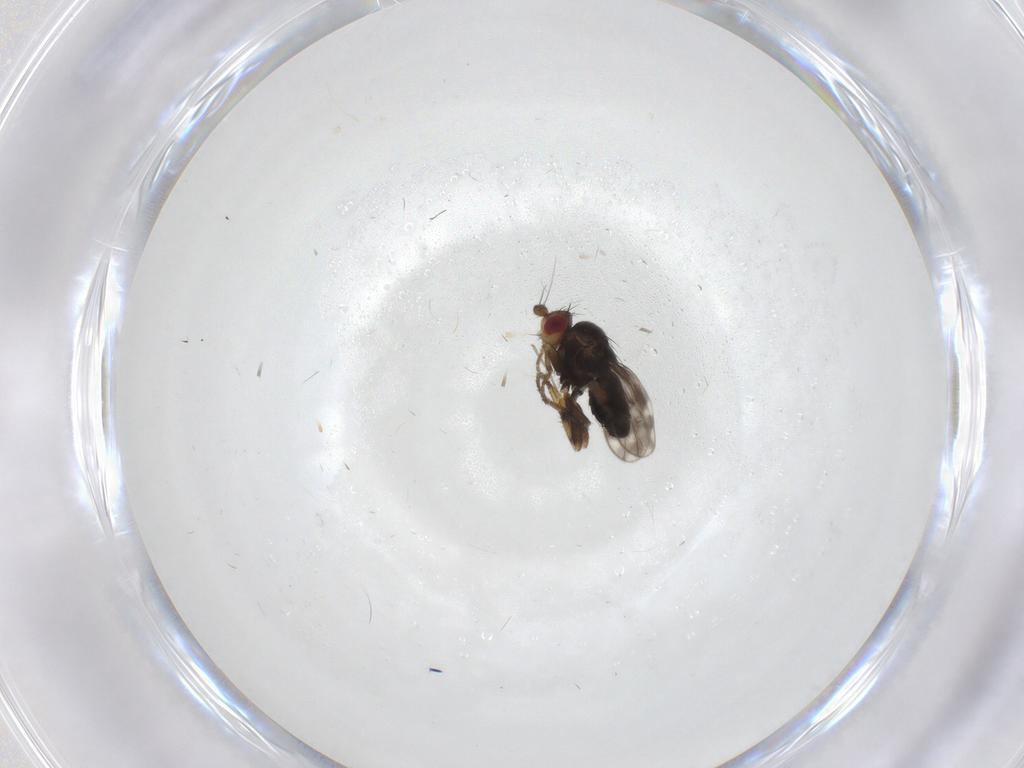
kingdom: Animalia
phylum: Arthropoda
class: Insecta
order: Diptera
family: Sphaeroceridae
